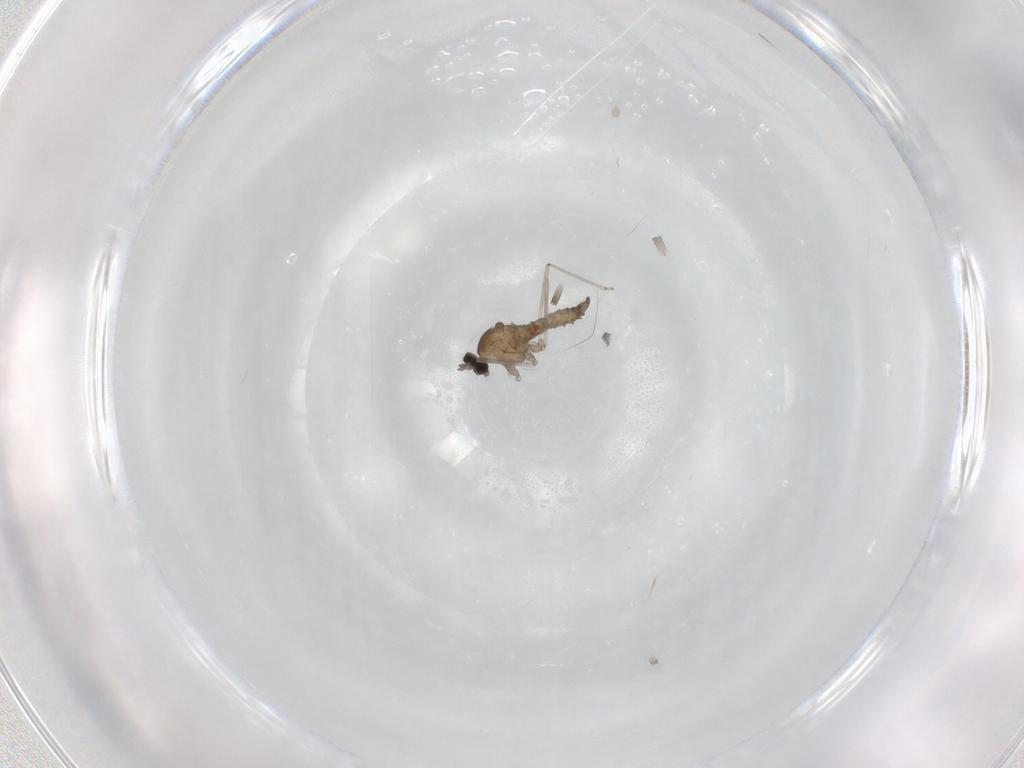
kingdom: Animalia
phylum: Arthropoda
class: Insecta
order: Diptera
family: Cecidomyiidae
